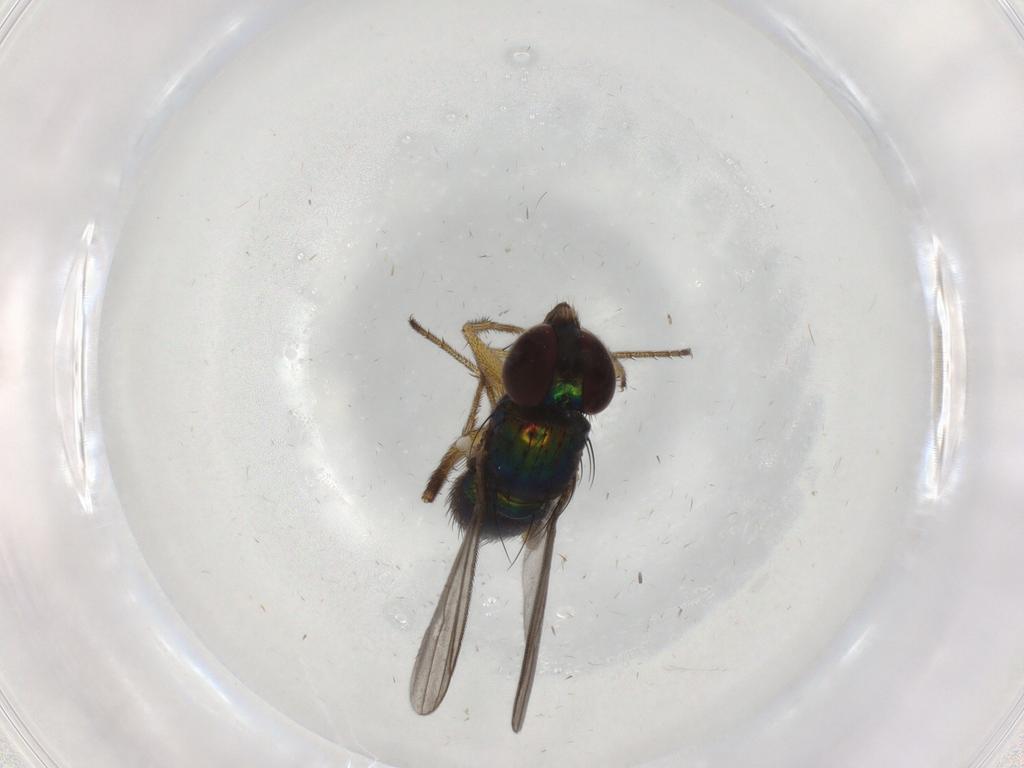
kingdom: Animalia
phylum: Arthropoda
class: Insecta
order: Diptera
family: Dolichopodidae
